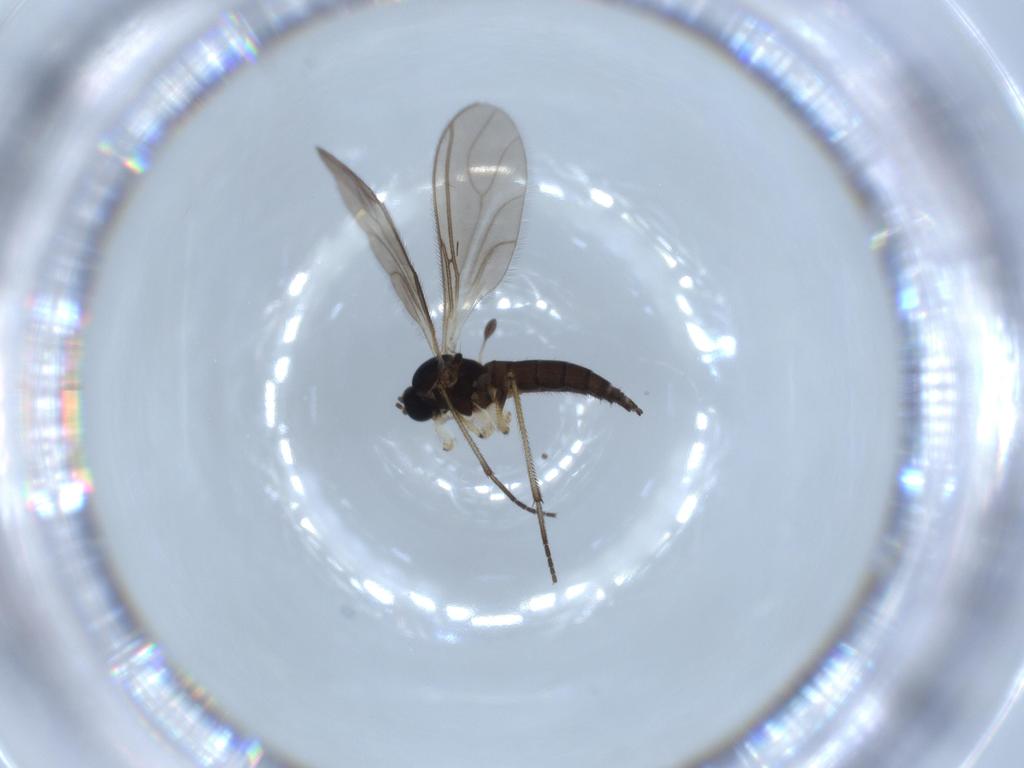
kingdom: Animalia
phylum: Arthropoda
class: Insecta
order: Diptera
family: Sciaridae
